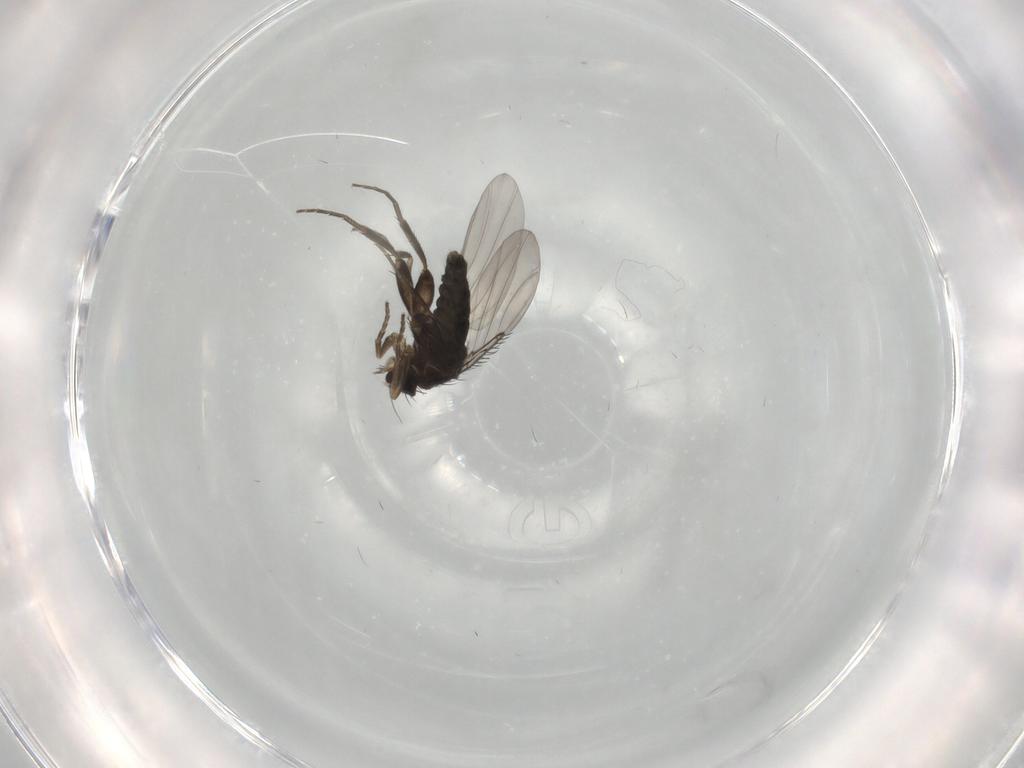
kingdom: Animalia
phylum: Arthropoda
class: Insecta
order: Diptera
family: Phoridae
